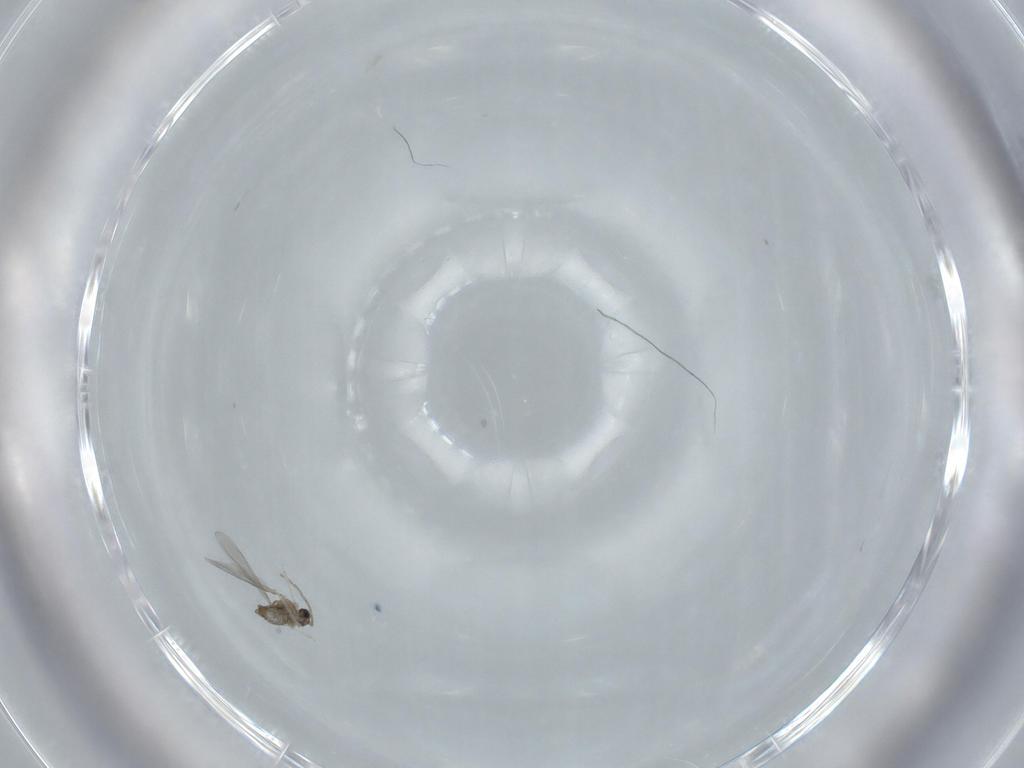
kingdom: Animalia
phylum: Arthropoda
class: Insecta
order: Diptera
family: Cecidomyiidae
